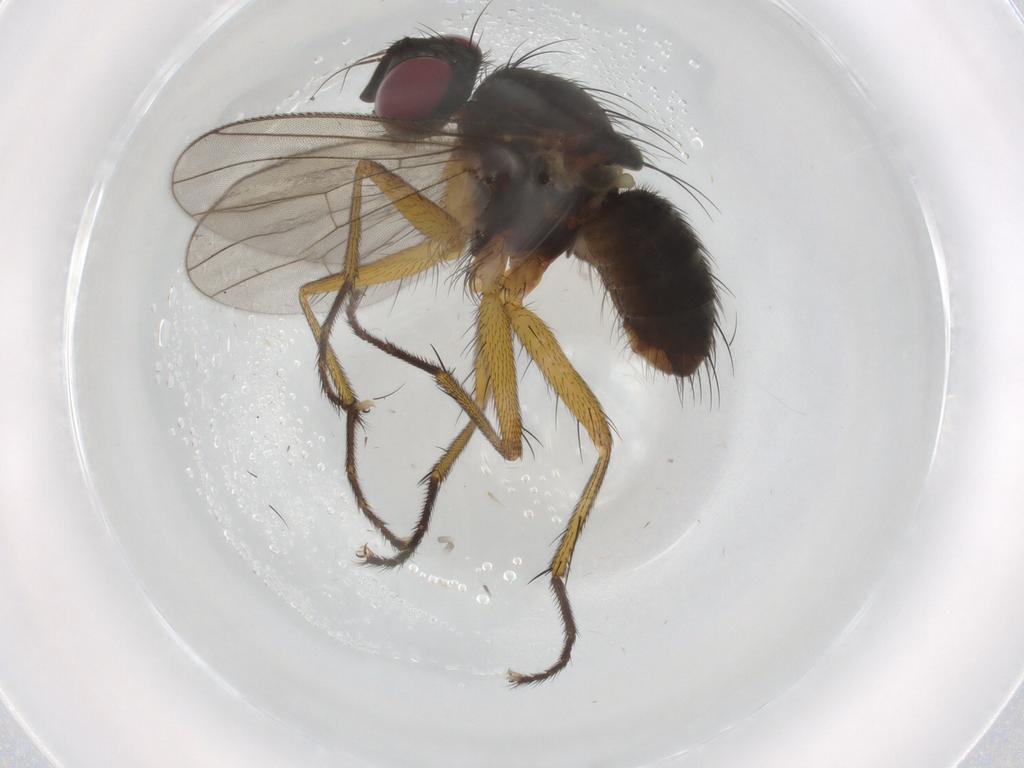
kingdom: Animalia
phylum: Arthropoda
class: Insecta
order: Diptera
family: Muscidae
